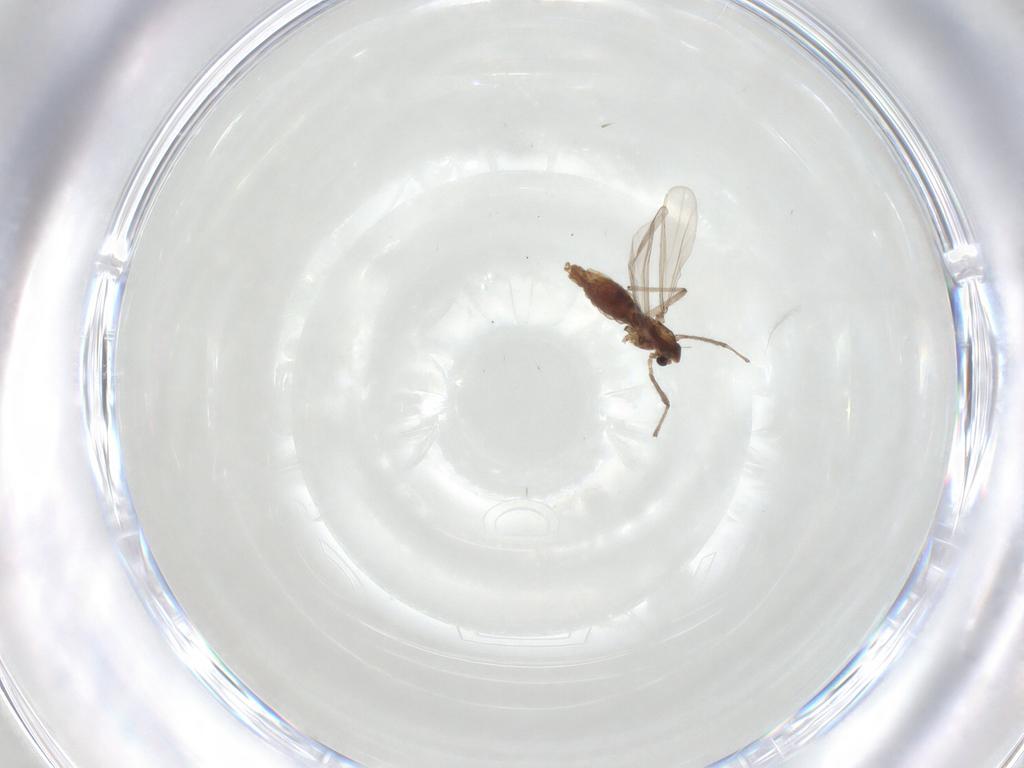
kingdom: Animalia
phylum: Arthropoda
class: Insecta
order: Diptera
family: Chironomidae
